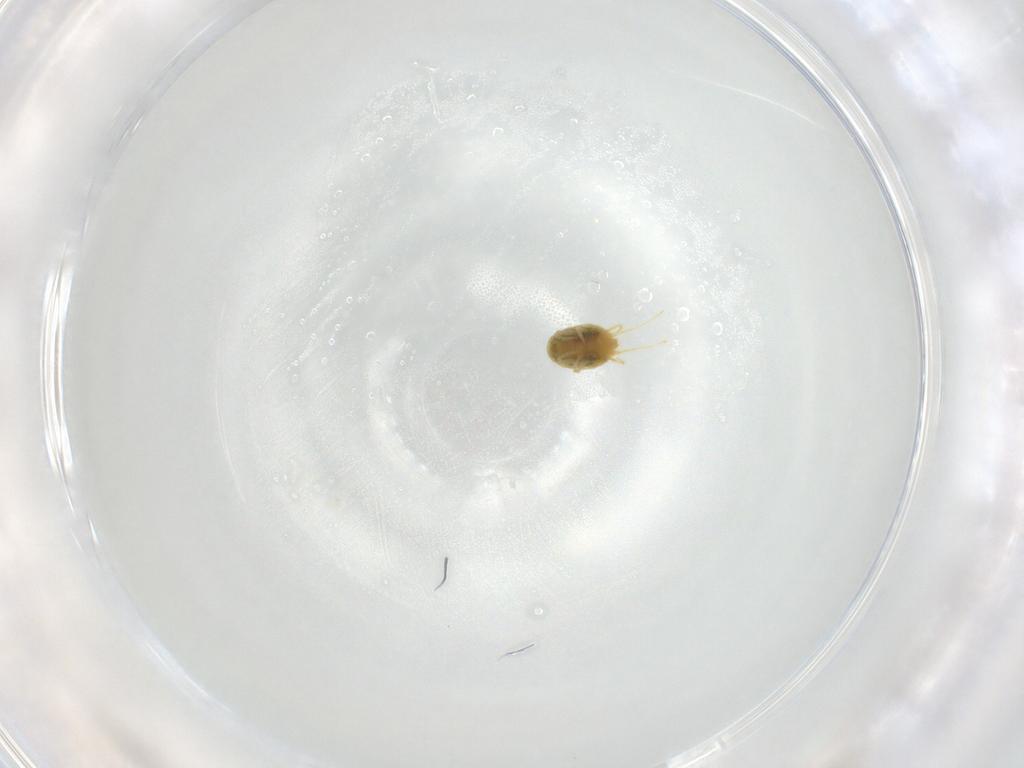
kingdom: Animalia
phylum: Arthropoda
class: Arachnida
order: Trombidiformes
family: Tetranychidae
